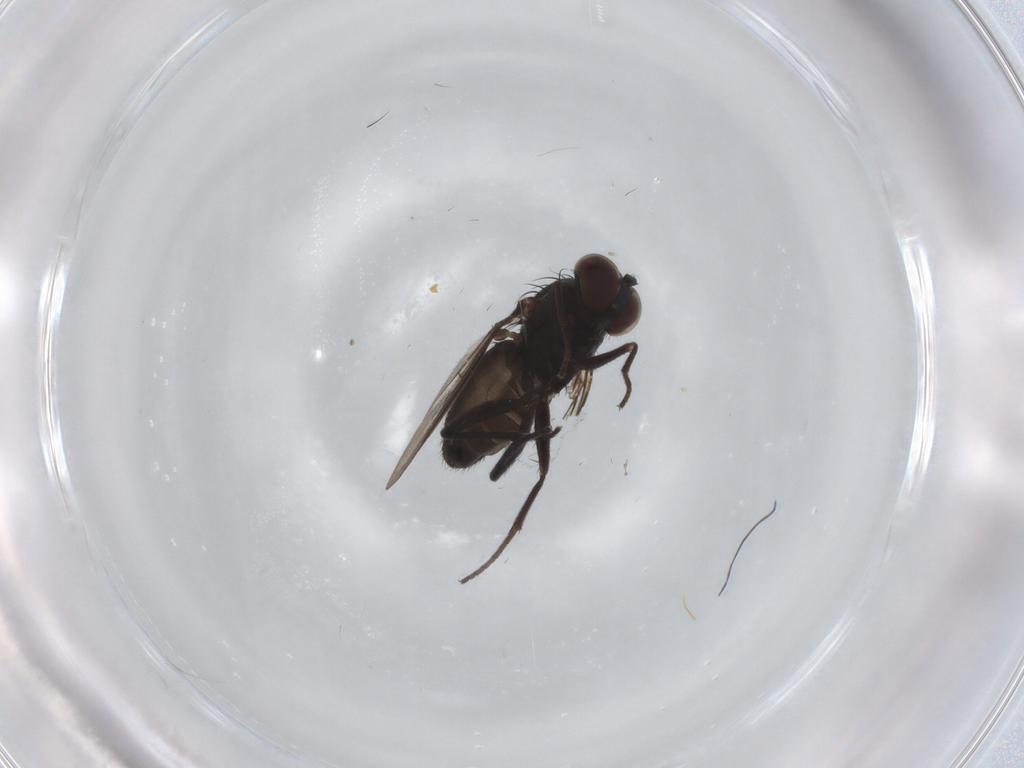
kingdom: Animalia
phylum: Arthropoda
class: Insecta
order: Diptera
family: Dolichopodidae
